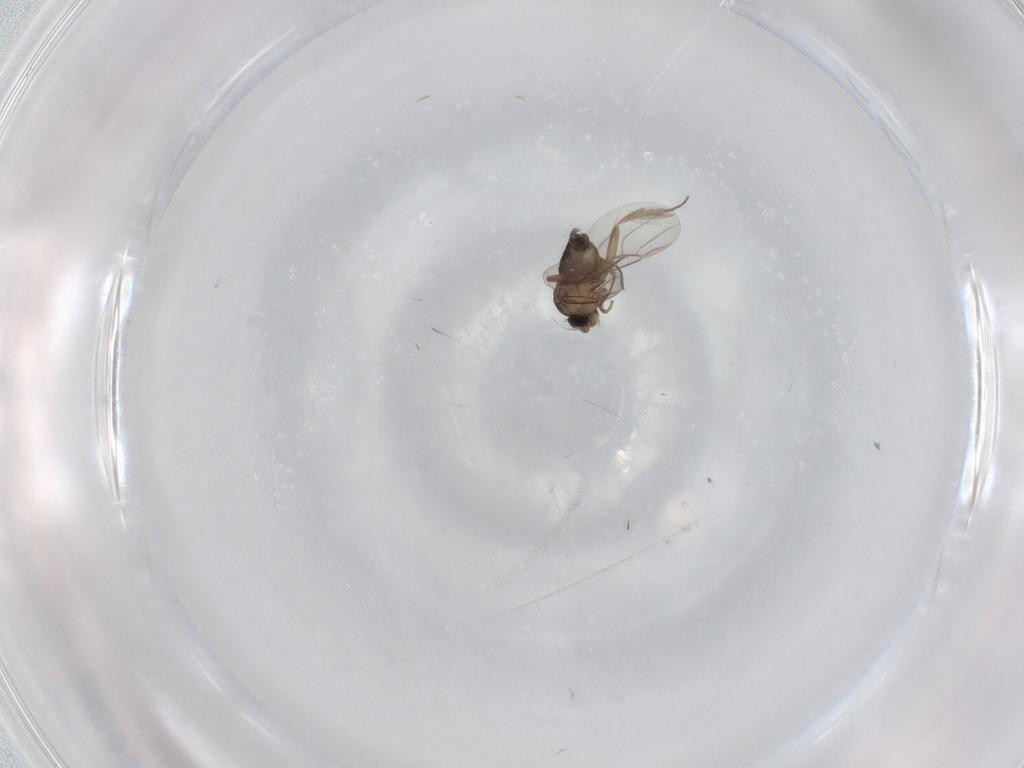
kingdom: Animalia
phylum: Arthropoda
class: Insecta
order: Diptera
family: Phoridae
